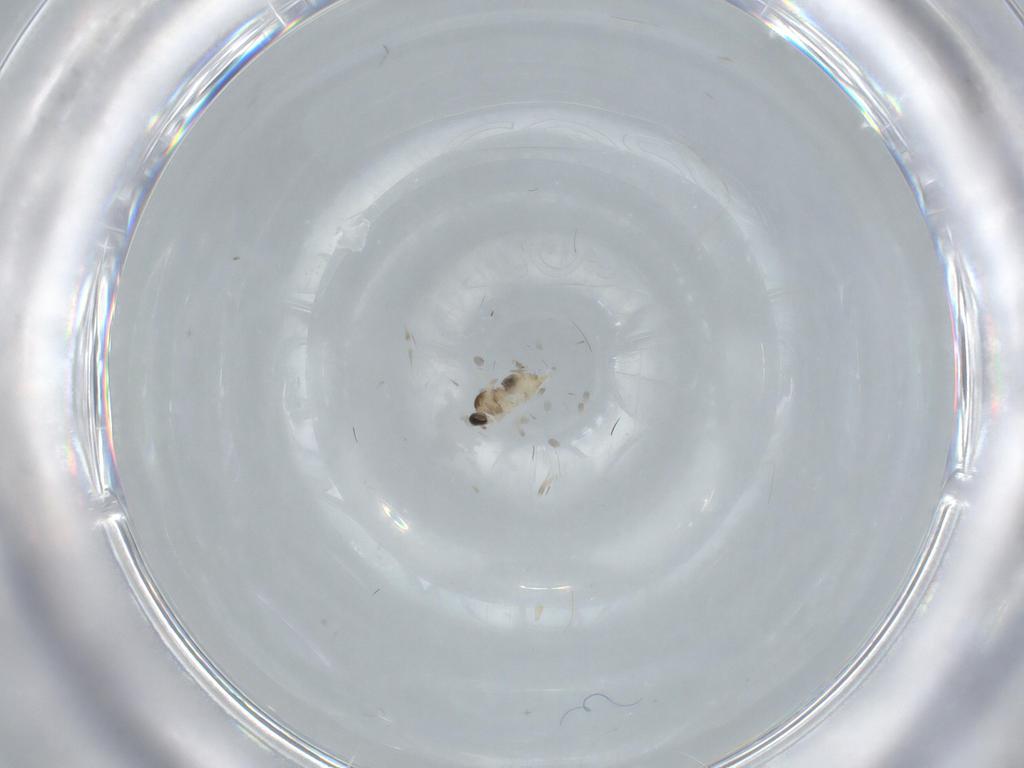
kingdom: Animalia
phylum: Arthropoda
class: Insecta
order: Diptera
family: Cecidomyiidae
